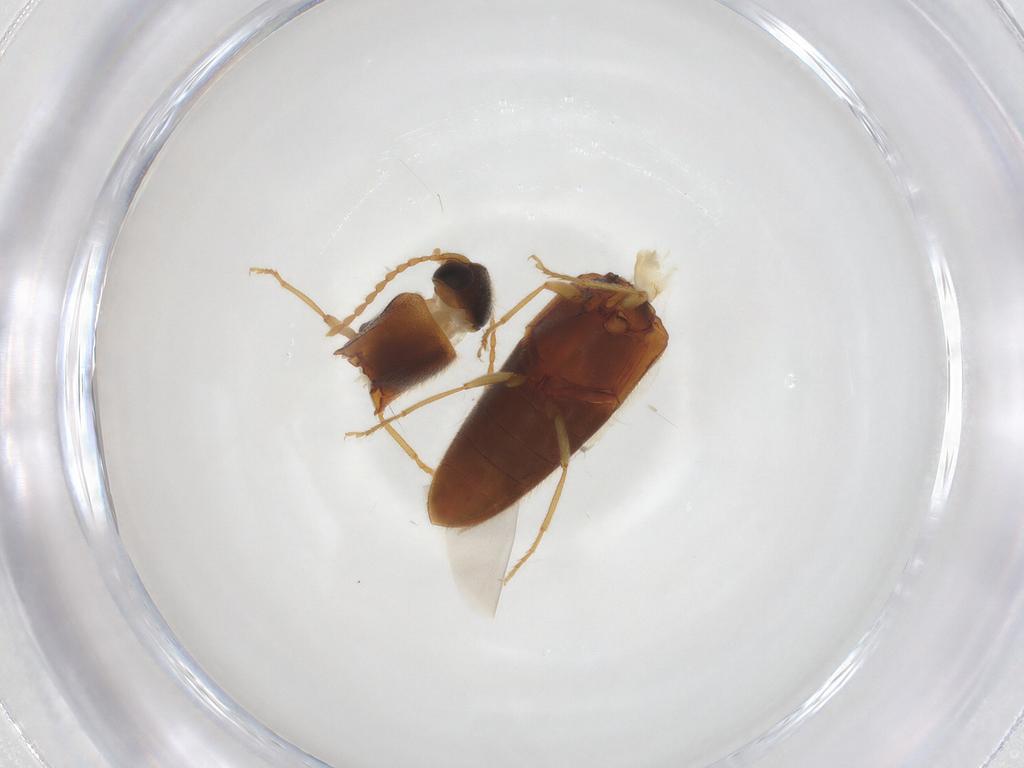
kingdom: Animalia
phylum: Arthropoda
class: Insecta
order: Coleoptera
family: Elateridae
